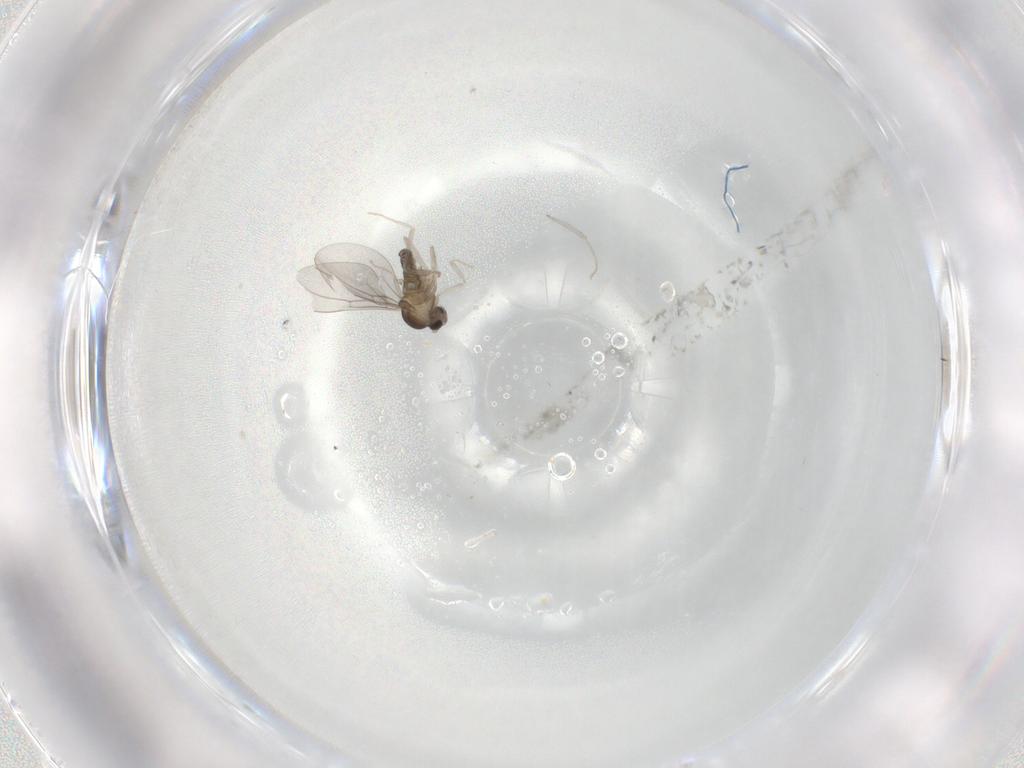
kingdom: Animalia
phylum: Arthropoda
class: Insecta
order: Diptera
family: Cecidomyiidae
